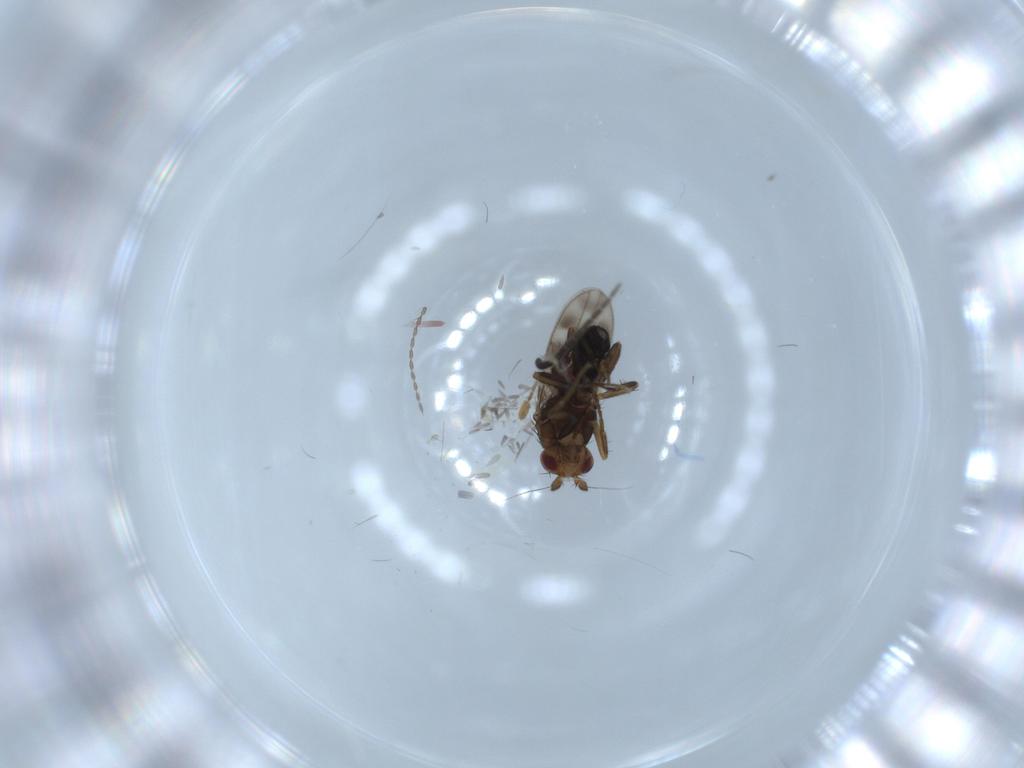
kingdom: Animalia
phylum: Arthropoda
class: Insecta
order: Diptera
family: Sphaeroceridae
